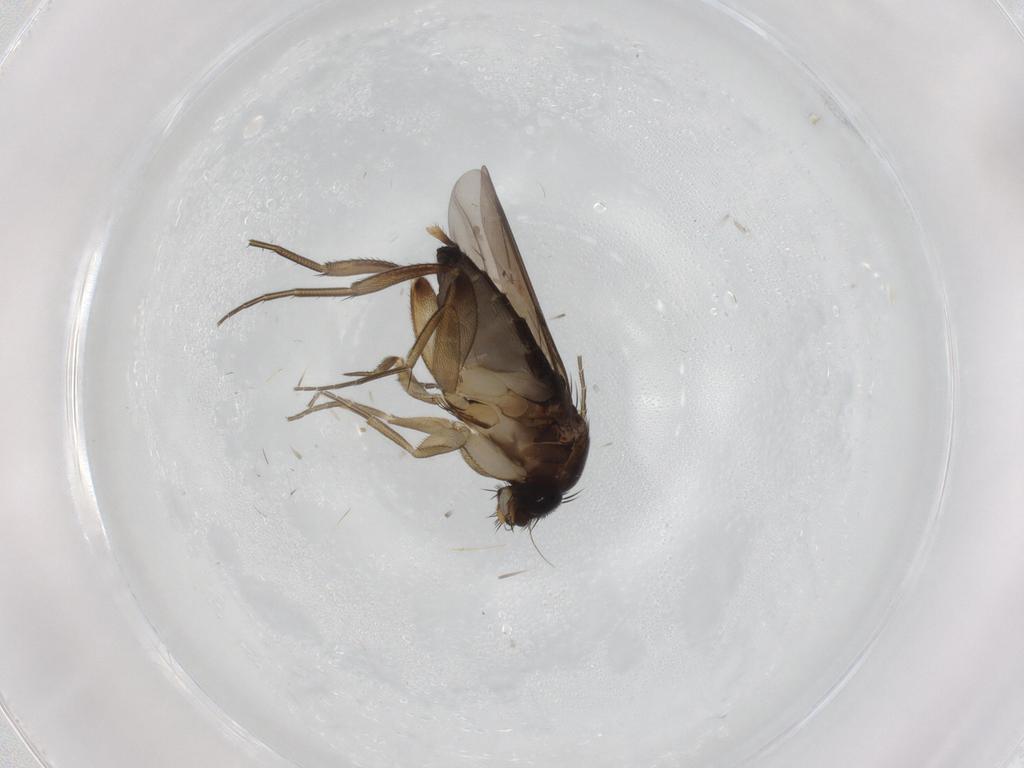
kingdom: Animalia
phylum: Arthropoda
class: Insecta
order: Diptera
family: Phoridae
